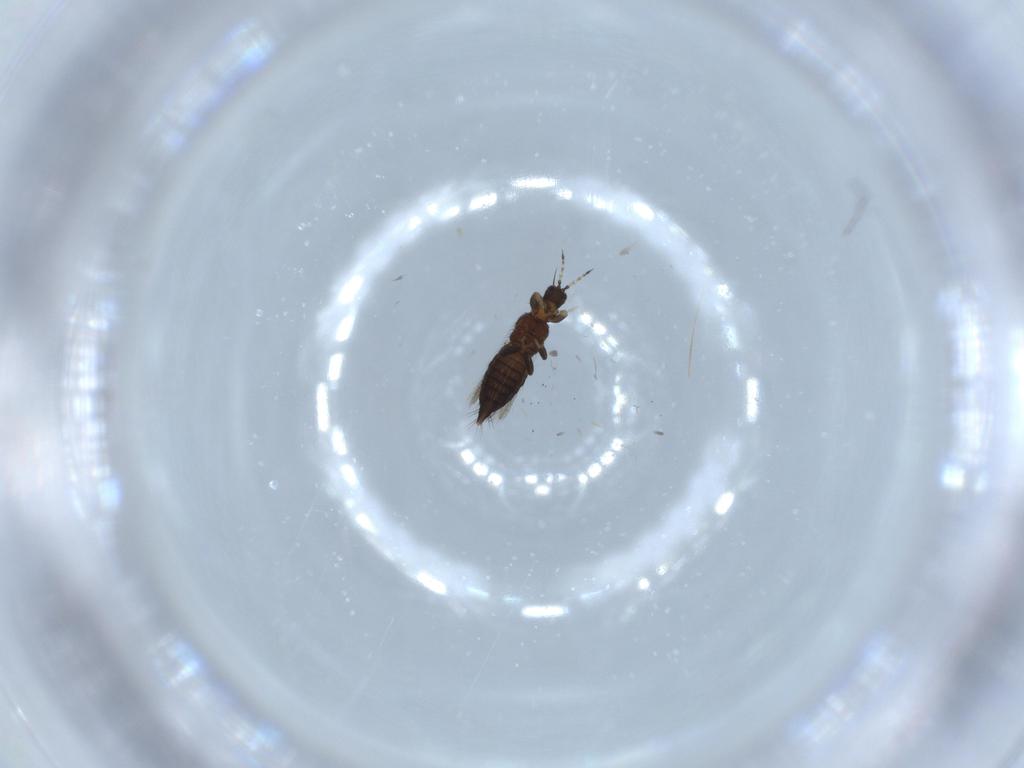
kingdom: Animalia
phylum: Arthropoda
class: Insecta
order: Thysanoptera
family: Thripidae
